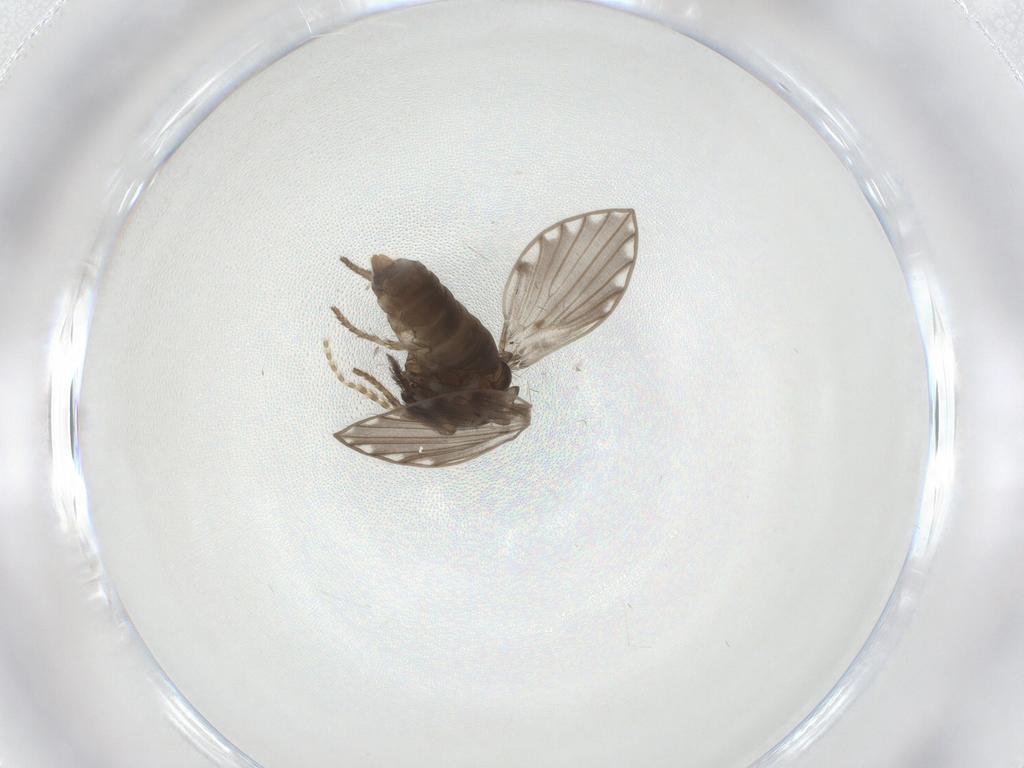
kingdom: Animalia
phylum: Arthropoda
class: Insecta
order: Diptera
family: Psychodidae
